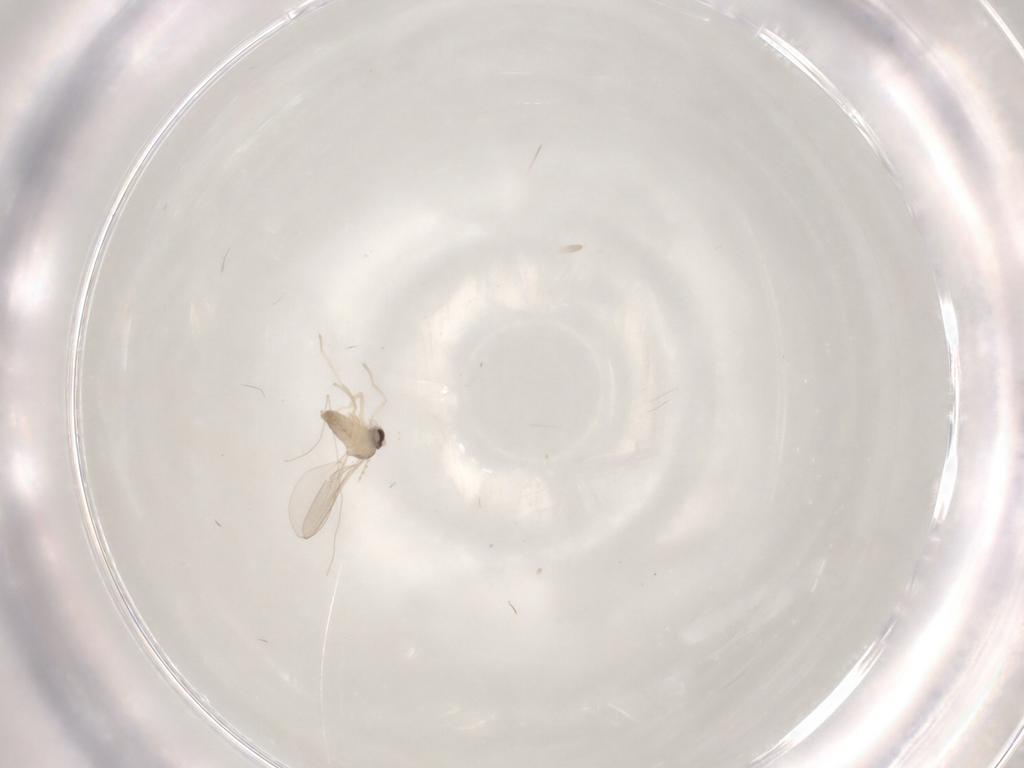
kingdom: Animalia
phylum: Arthropoda
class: Insecta
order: Diptera
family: Cecidomyiidae
